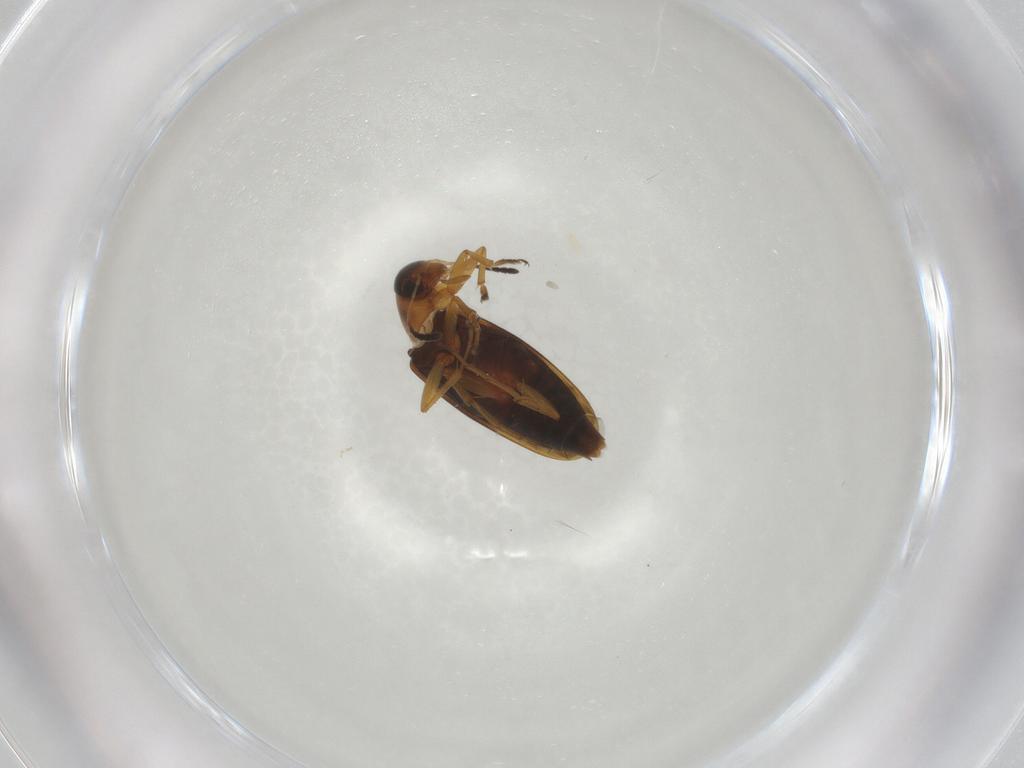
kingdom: Animalia
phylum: Arthropoda
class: Insecta
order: Coleoptera
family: Scraptiidae
